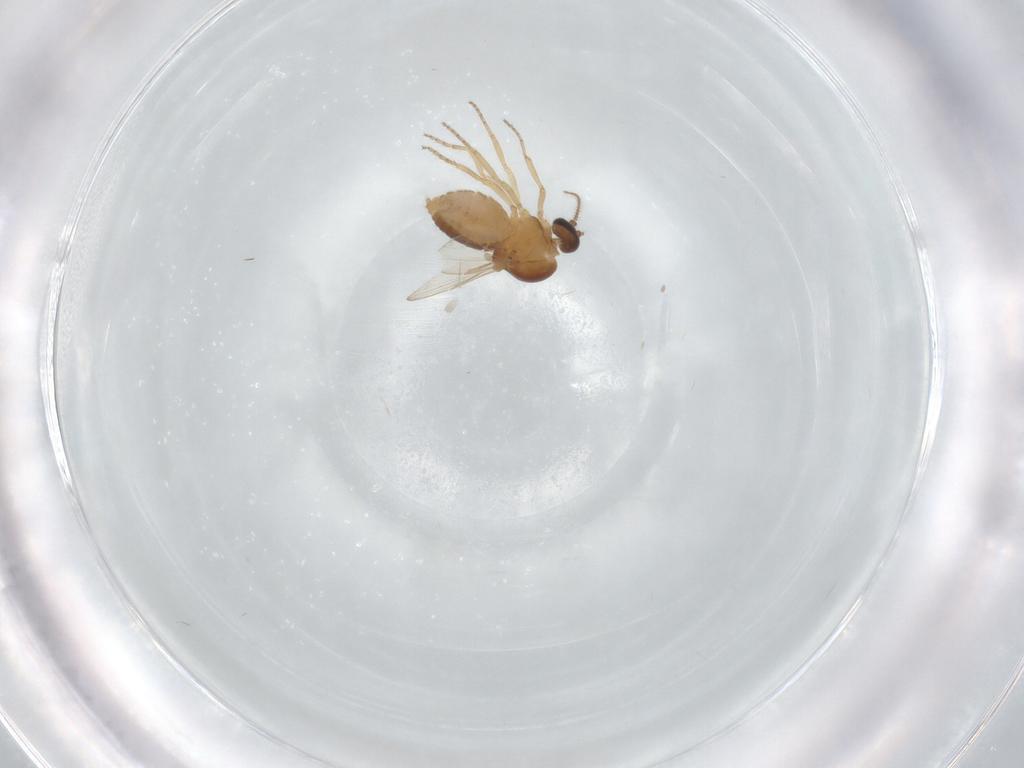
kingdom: Animalia
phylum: Arthropoda
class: Insecta
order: Diptera
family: Ceratopogonidae
